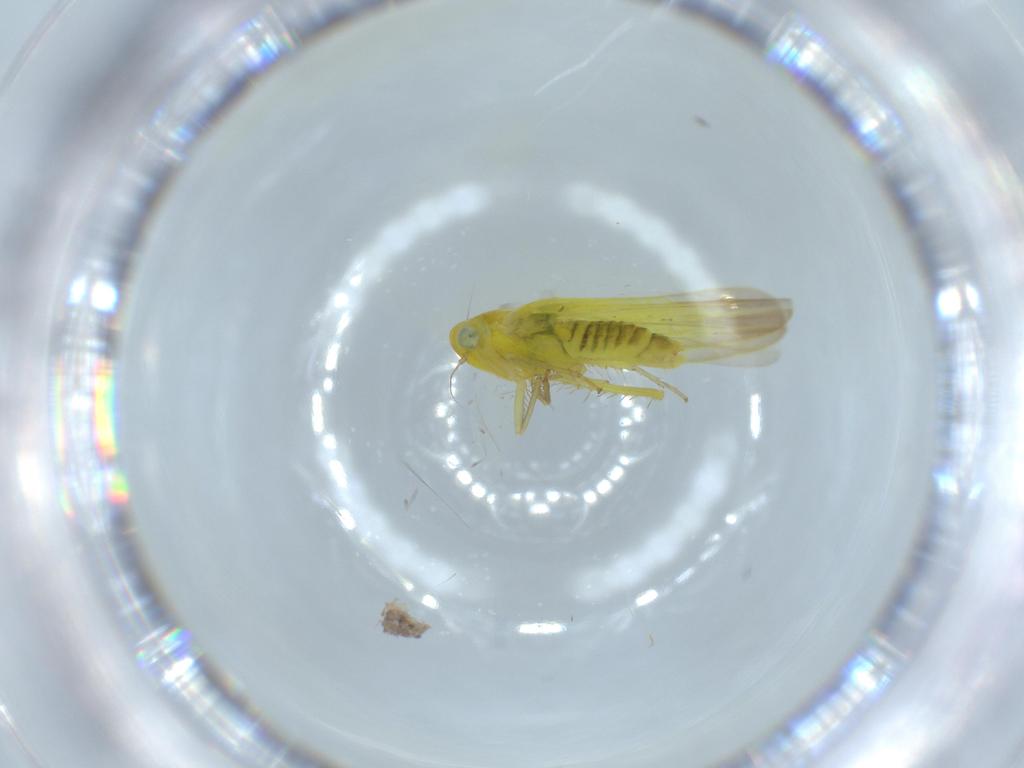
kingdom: Animalia
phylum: Arthropoda
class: Insecta
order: Hemiptera
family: Cicadellidae
